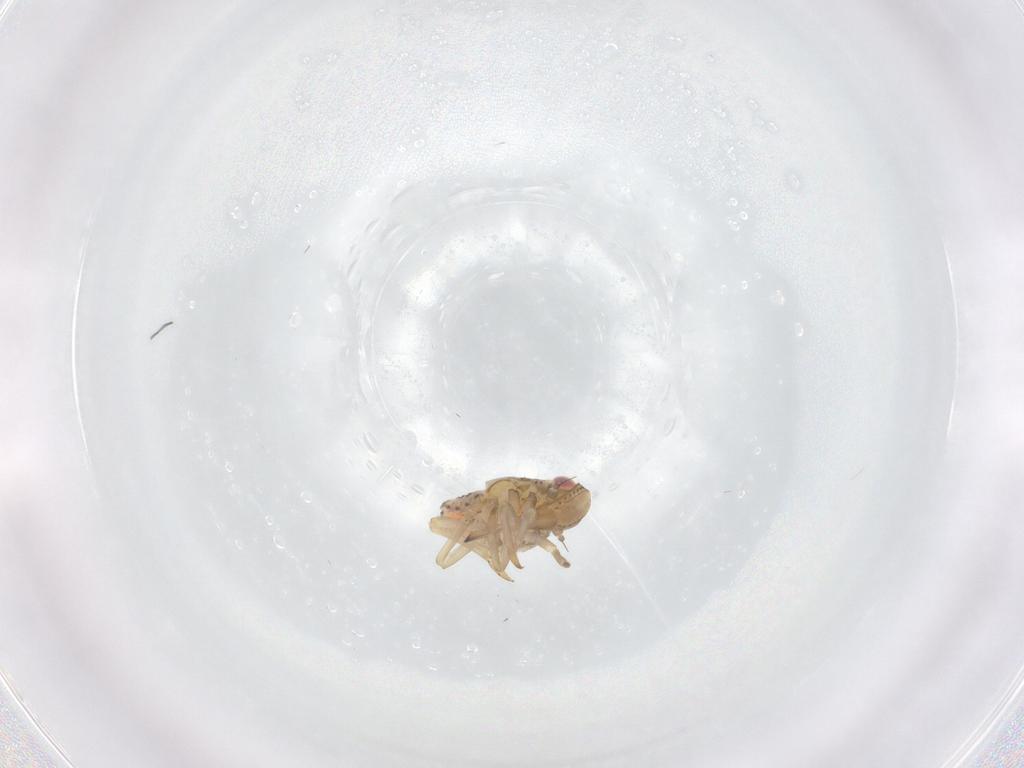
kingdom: Animalia
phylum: Arthropoda
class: Insecta
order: Hemiptera
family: Tropiduchidae
